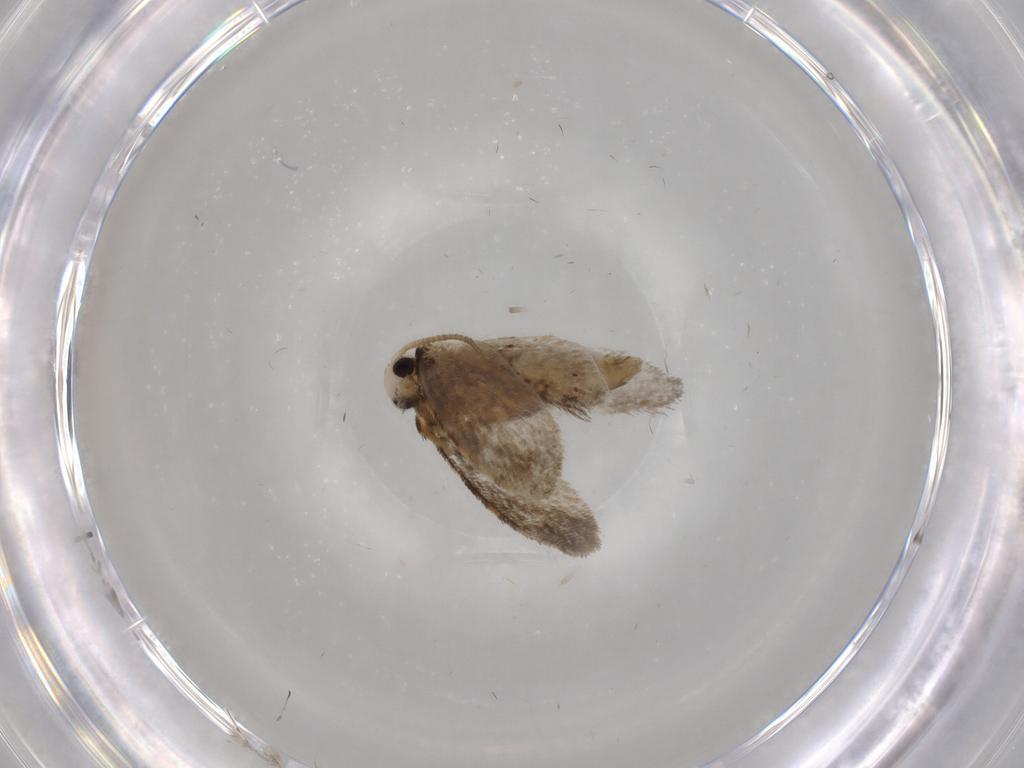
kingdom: Animalia
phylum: Arthropoda
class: Insecta
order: Lepidoptera
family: Psychidae
